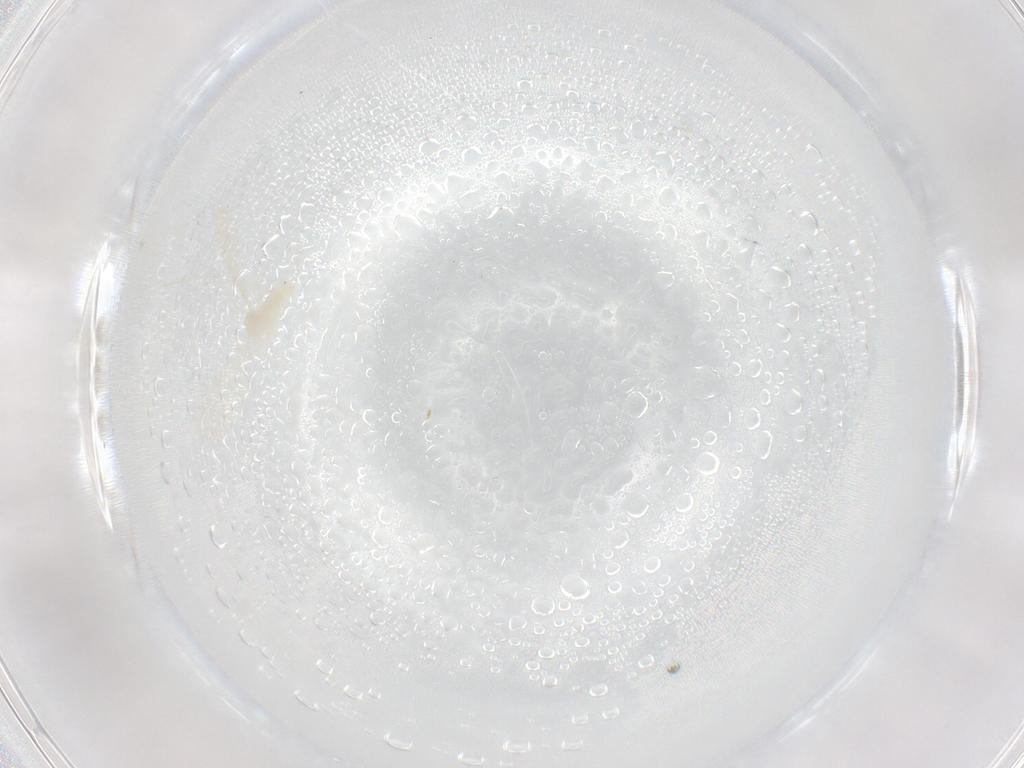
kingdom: Animalia
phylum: Arthropoda
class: Insecta
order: Diptera
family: Cecidomyiidae
